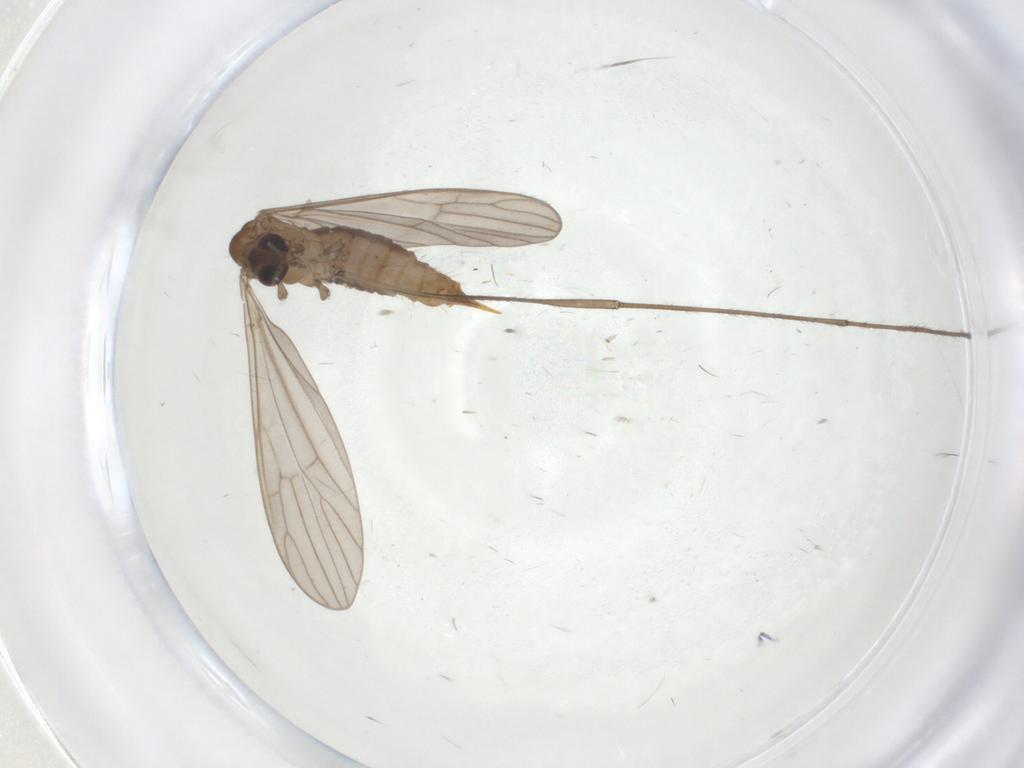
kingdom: Animalia
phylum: Arthropoda
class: Insecta
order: Diptera
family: Limoniidae
